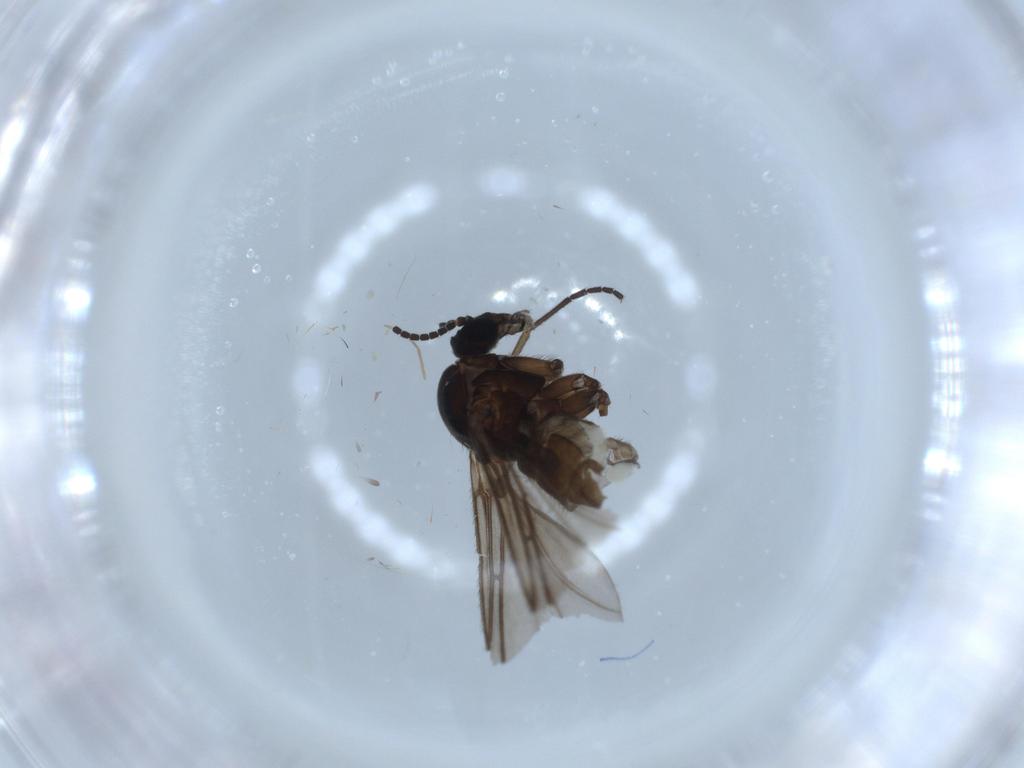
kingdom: Animalia
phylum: Arthropoda
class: Insecta
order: Diptera
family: Sciaridae
